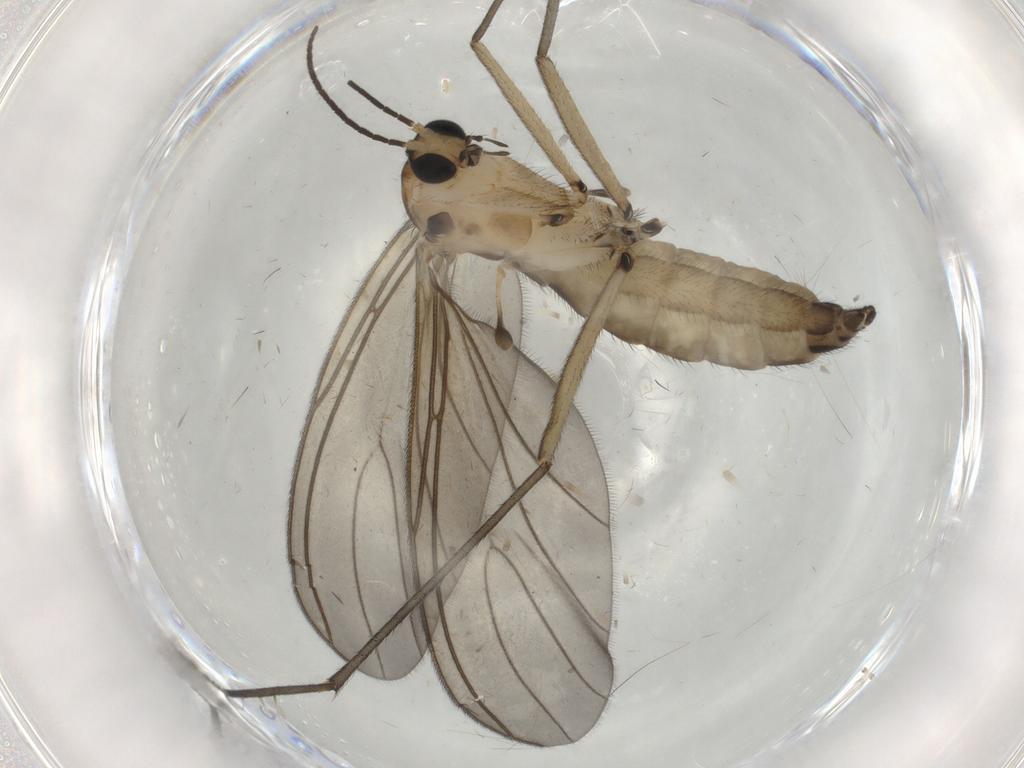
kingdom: Animalia
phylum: Arthropoda
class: Insecta
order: Diptera
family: Sciaridae
